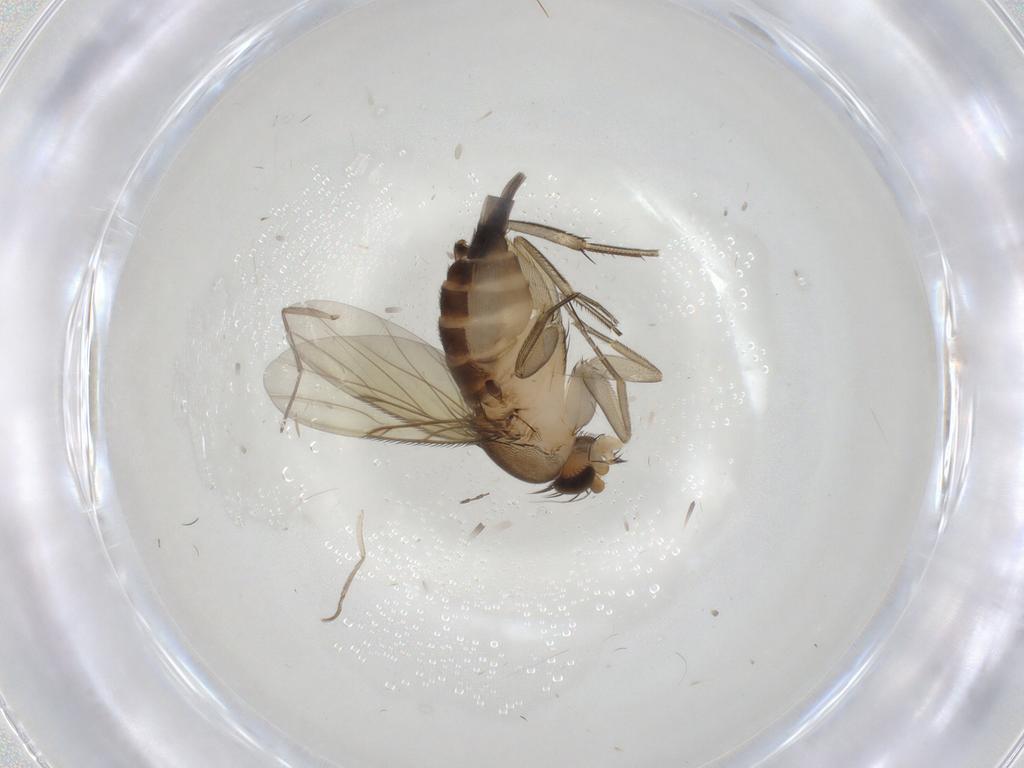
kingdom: Animalia
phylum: Arthropoda
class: Insecta
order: Diptera
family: Phoridae
